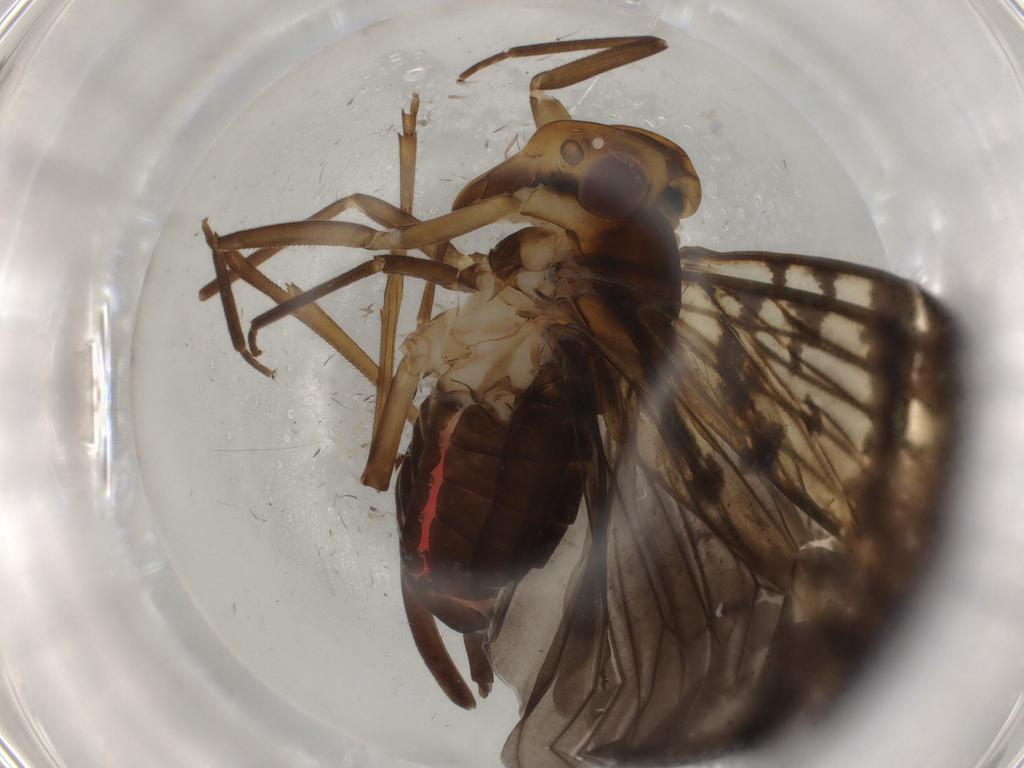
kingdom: Animalia
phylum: Arthropoda
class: Insecta
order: Hemiptera
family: Cixiidae
